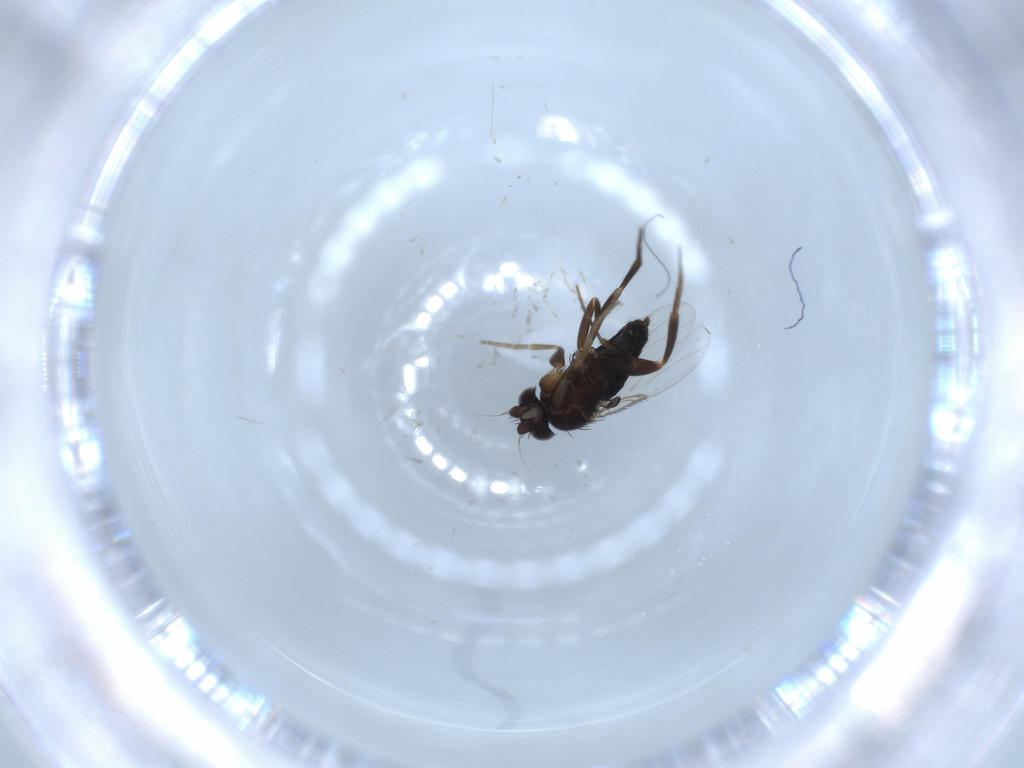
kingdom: Animalia
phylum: Arthropoda
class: Insecta
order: Diptera
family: Phoridae
